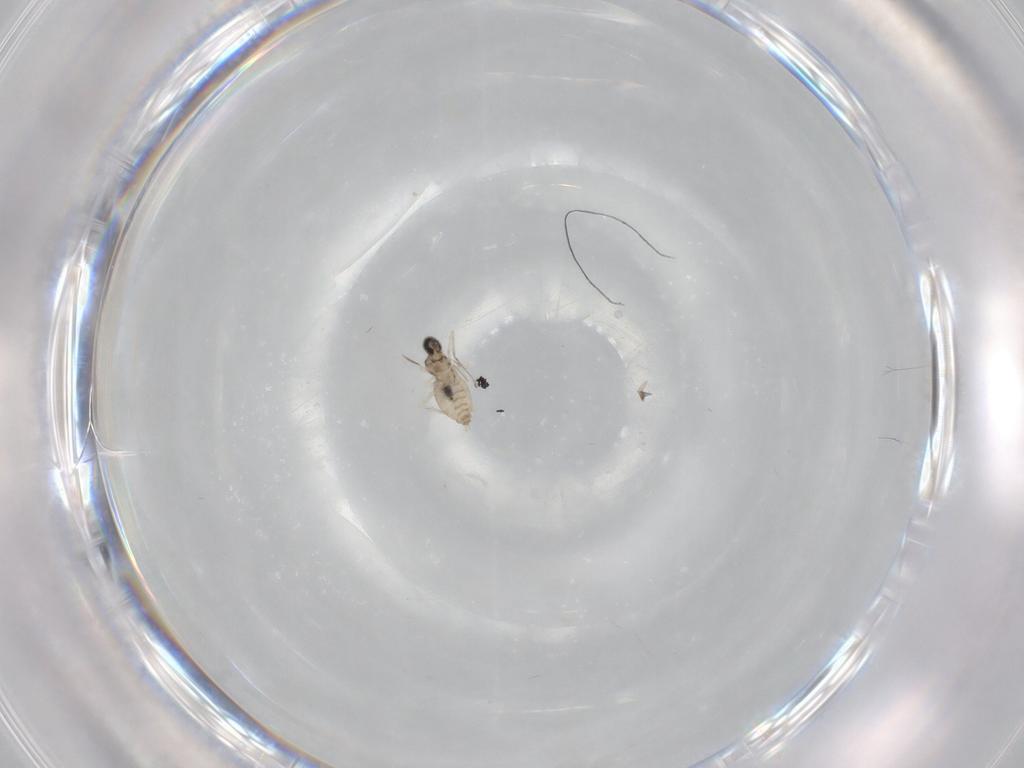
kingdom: Animalia
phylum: Arthropoda
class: Insecta
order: Diptera
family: Cecidomyiidae
